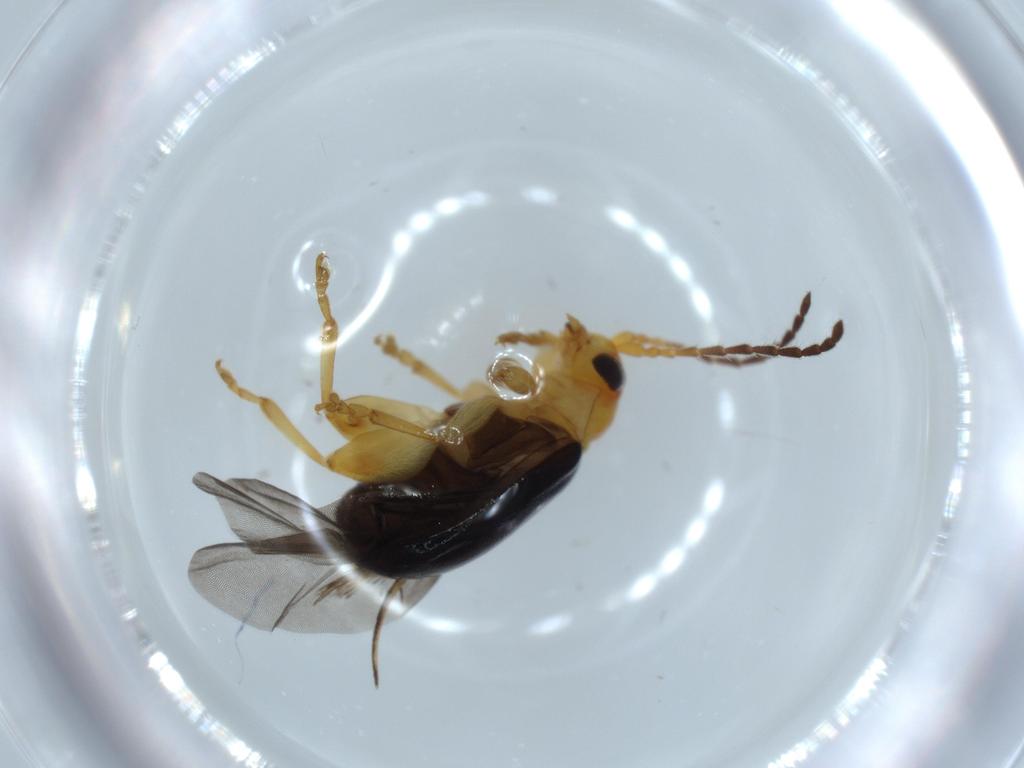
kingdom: Animalia
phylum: Arthropoda
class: Insecta
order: Coleoptera
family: Chrysomelidae
